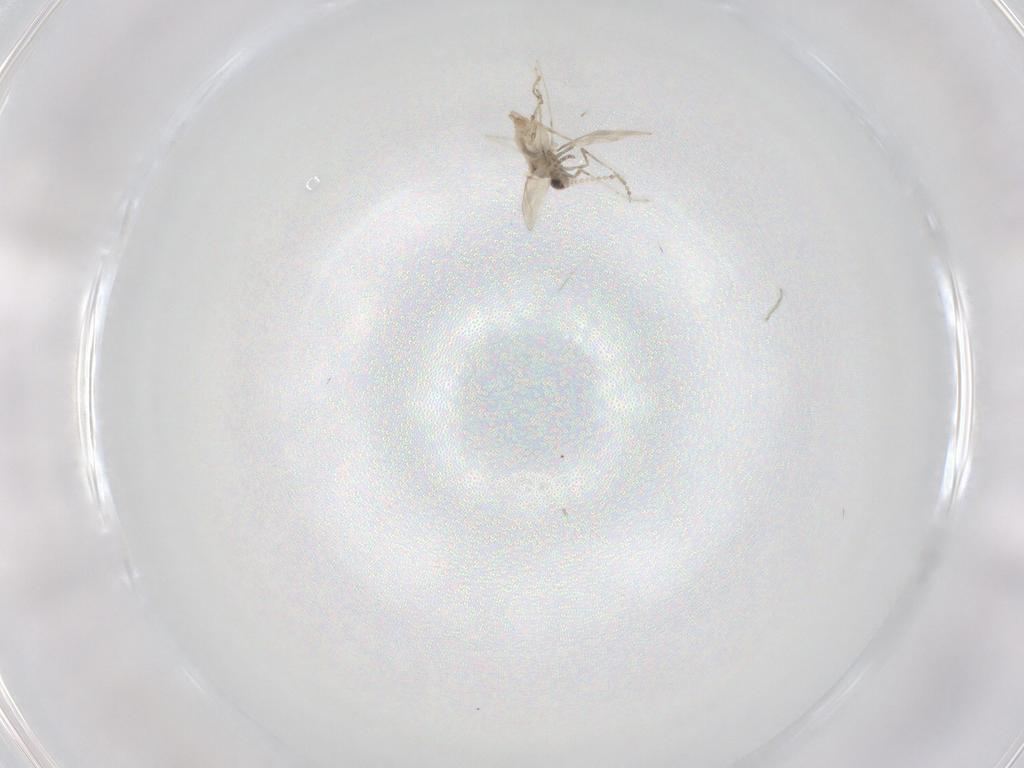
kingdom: Animalia
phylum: Arthropoda
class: Insecta
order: Diptera
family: Cecidomyiidae
